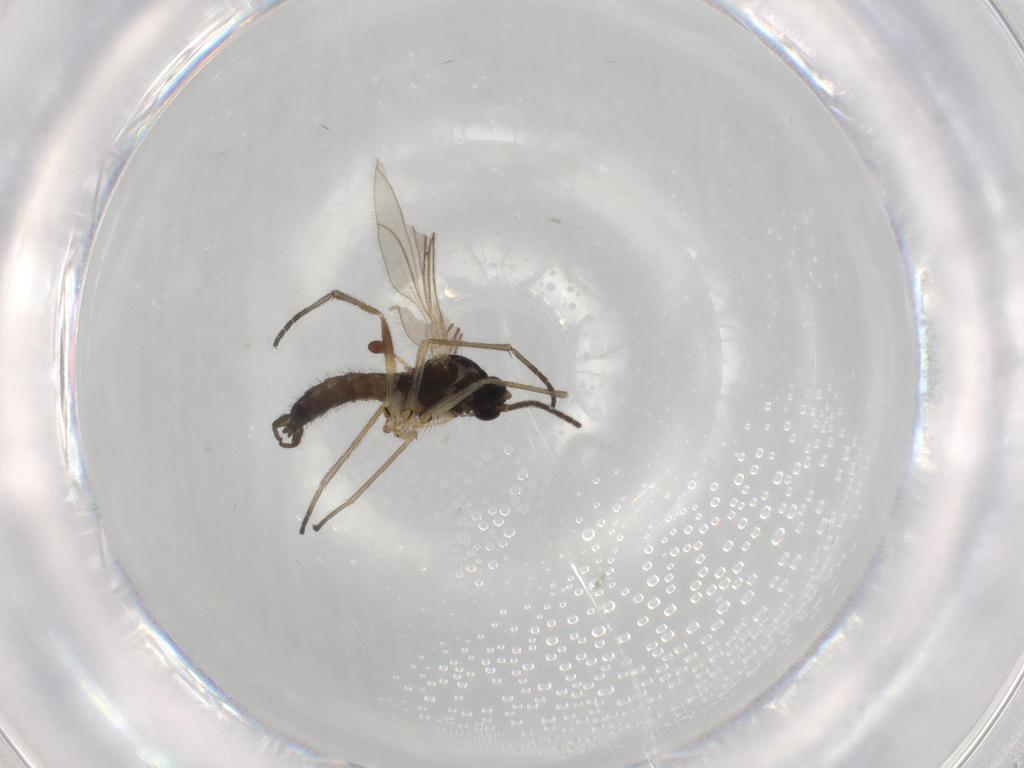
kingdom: Animalia
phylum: Arthropoda
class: Insecta
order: Diptera
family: Sciaridae
